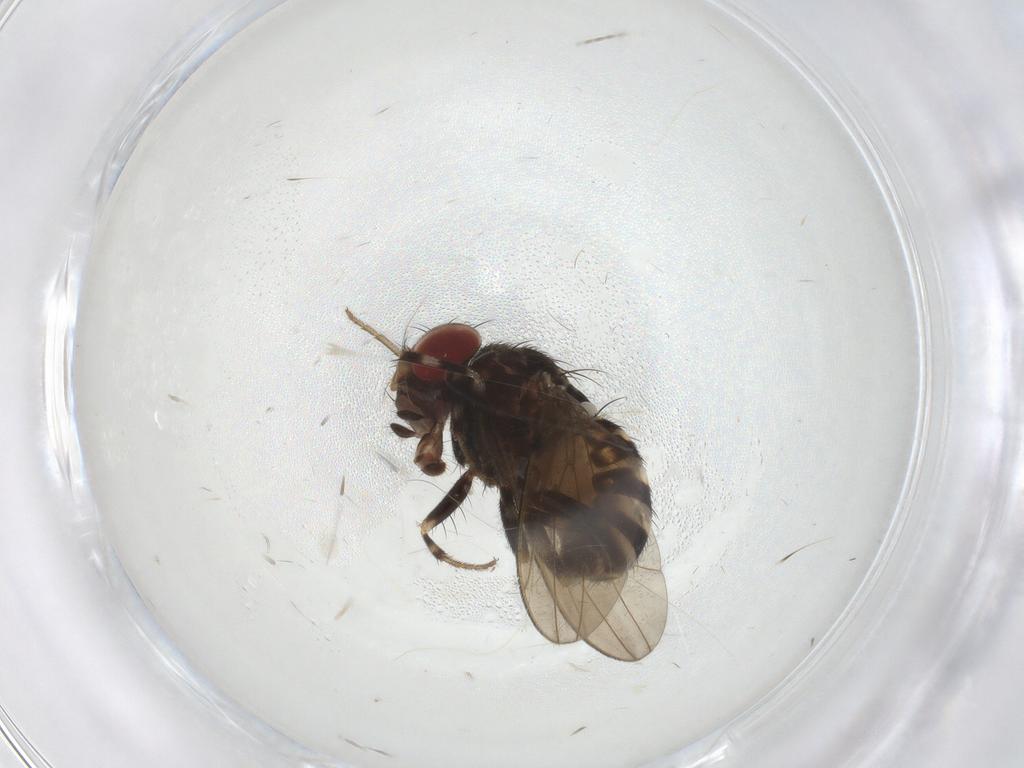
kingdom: Animalia
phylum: Arthropoda
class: Insecta
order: Diptera
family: Drosophilidae
